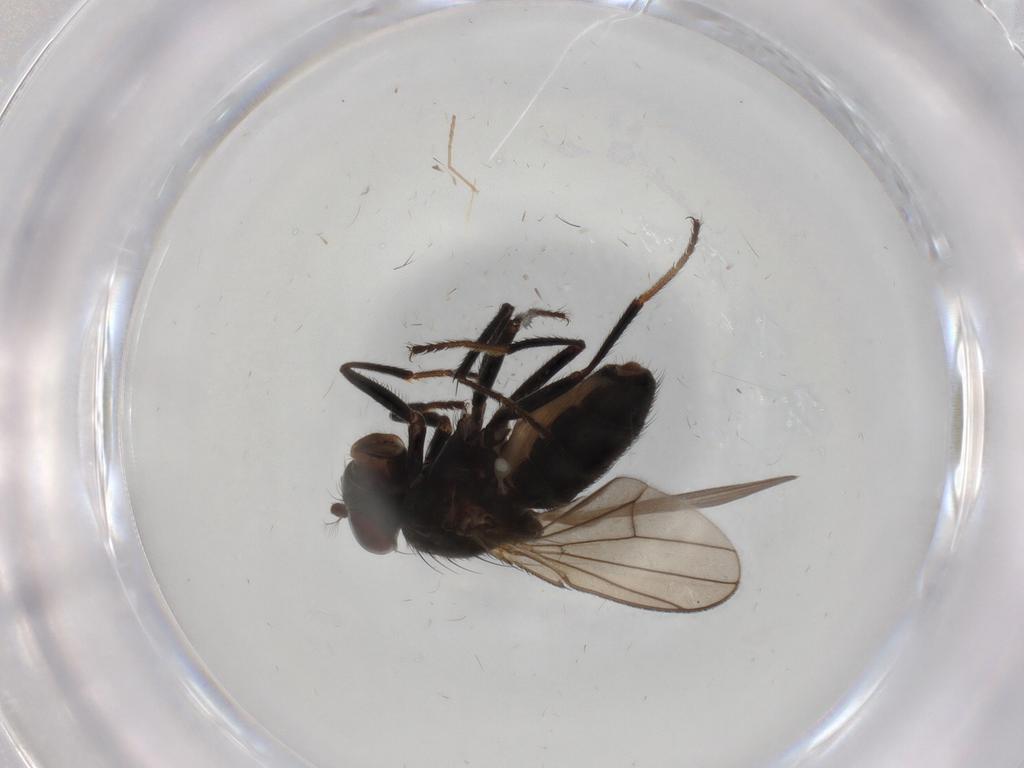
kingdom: Animalia
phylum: Arthropoda
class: Insecta
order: Diptera
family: Ephydridae
